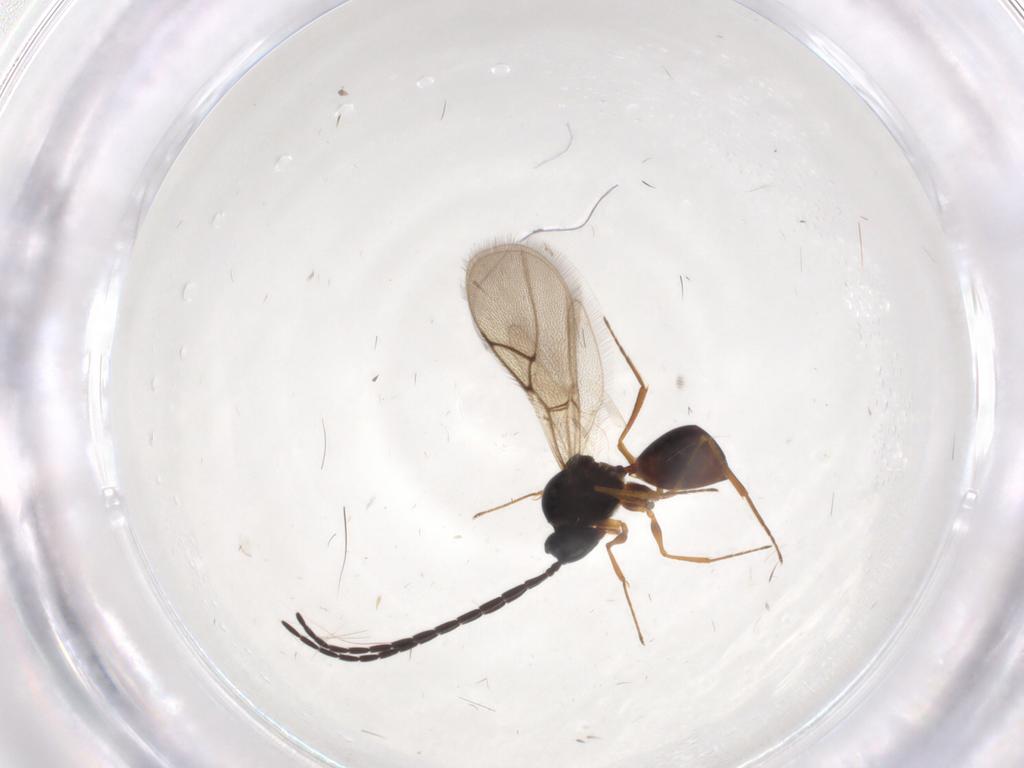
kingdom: Animalia
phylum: Arthropoda
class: Insecta
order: Hymenoptera
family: Figitidae
